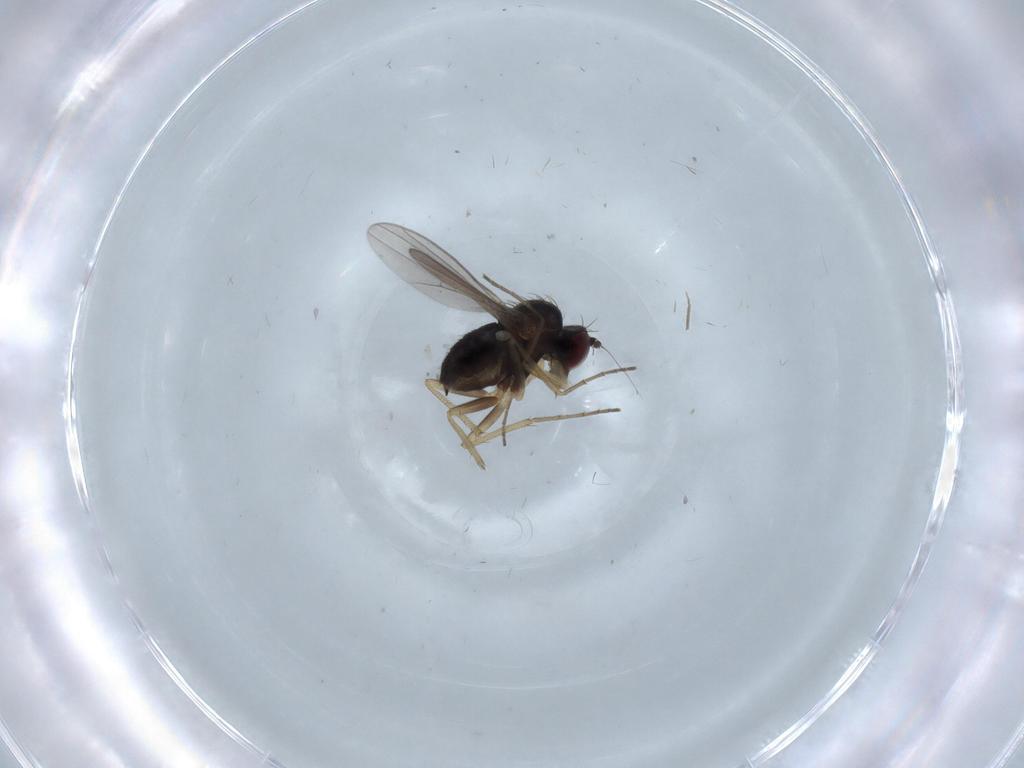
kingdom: Animalia
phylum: Arthropoda
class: Insecta
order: Diptera
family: Dolichopodidae
